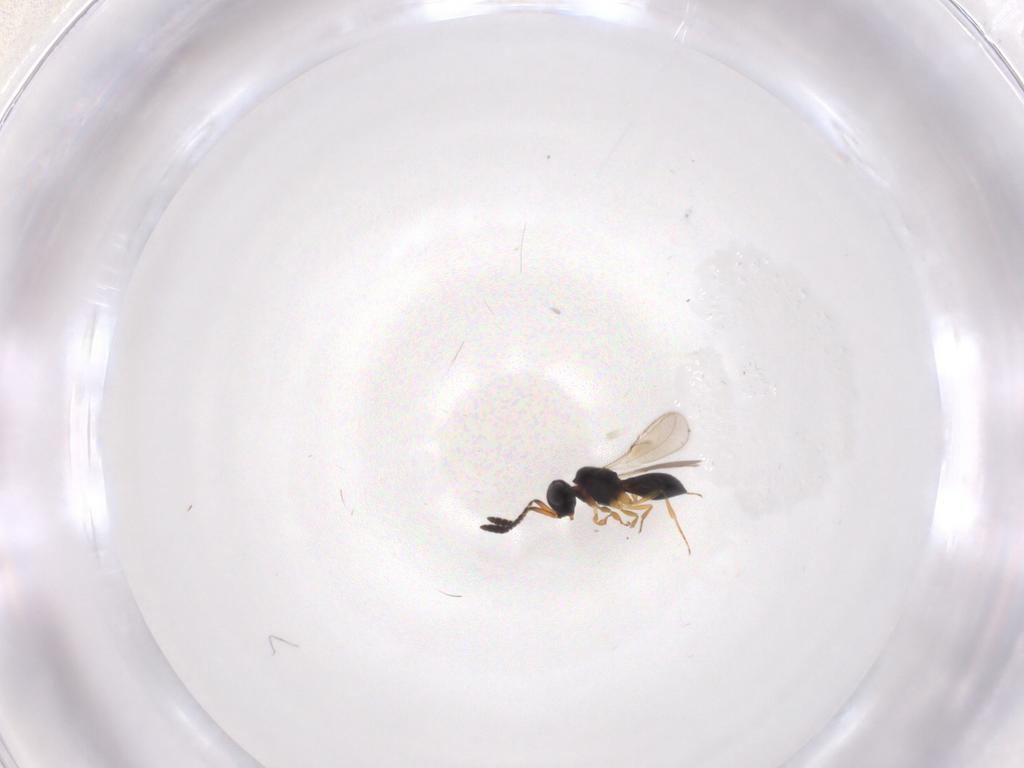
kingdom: Animalia
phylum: Arthropoda
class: Insecta
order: Hymenoptera
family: Scelionidae
